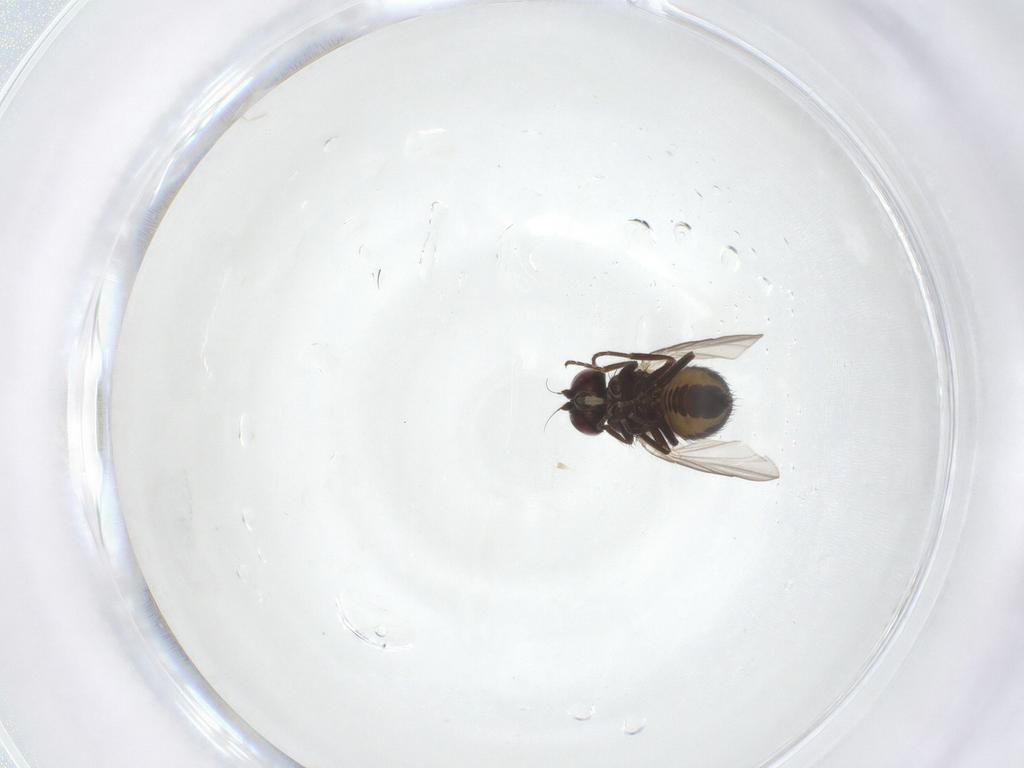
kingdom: Animalia
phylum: Arthropoda
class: Insecta
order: Diptera
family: Agromyzidae
